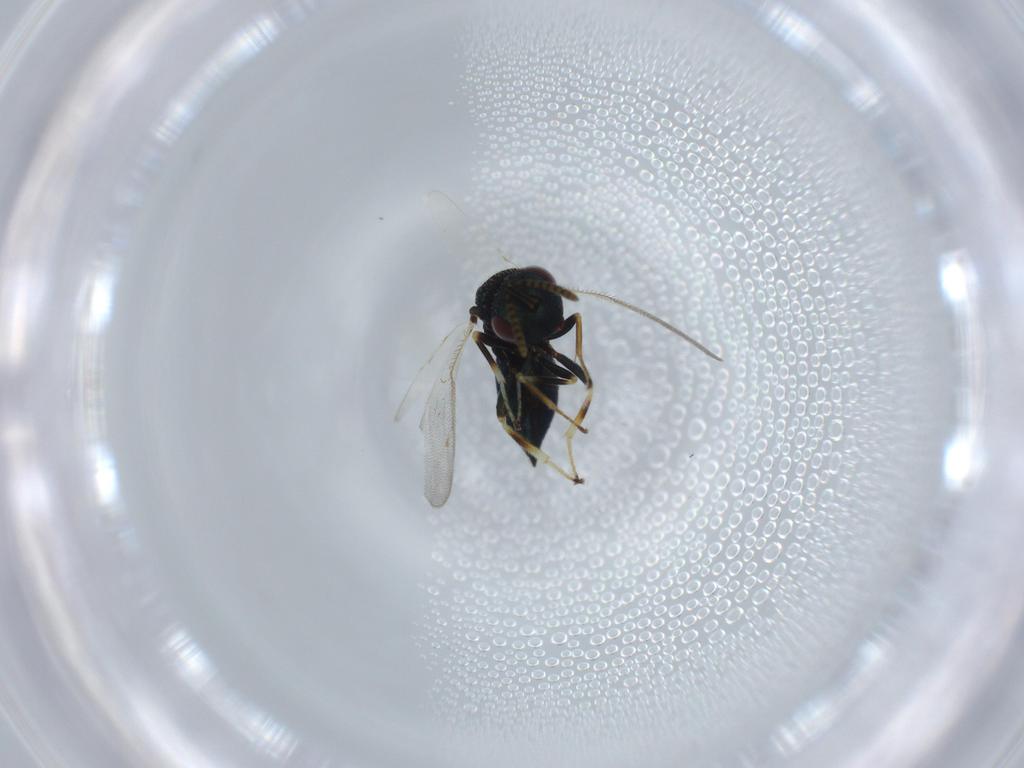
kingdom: Animalia
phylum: Arthropoda
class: Insecta
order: Hymenoptera
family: Pteromalidae
